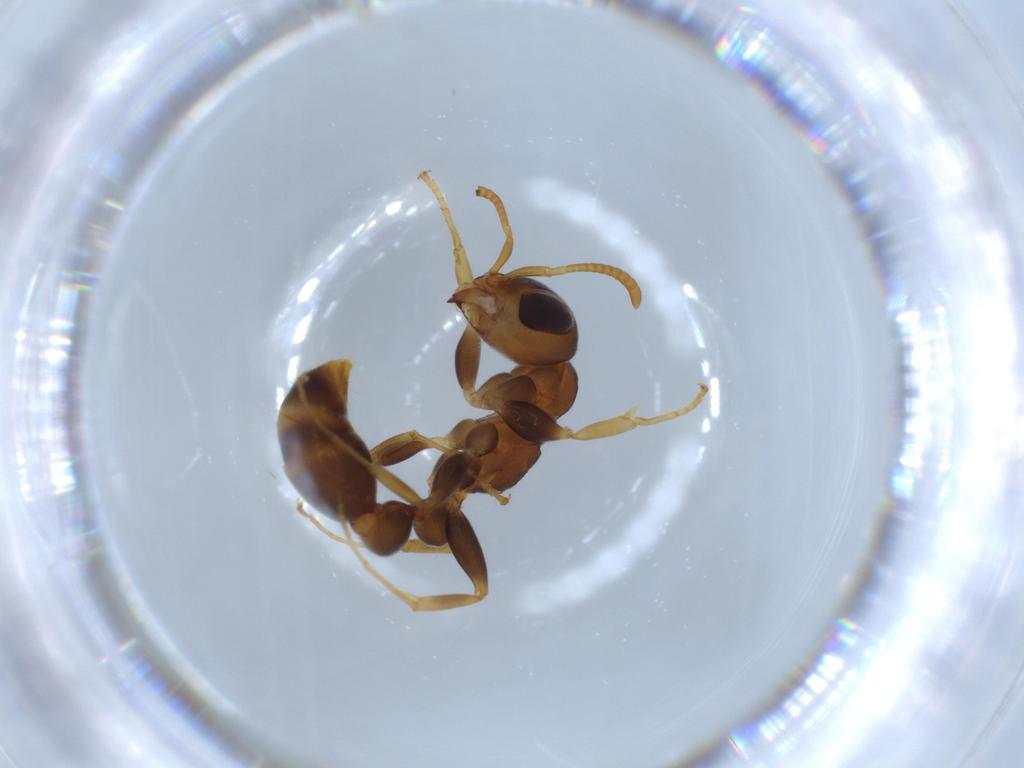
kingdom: Animalia
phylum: Arthropoda
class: Insecta
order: Hymenoptera
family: Formicidae
